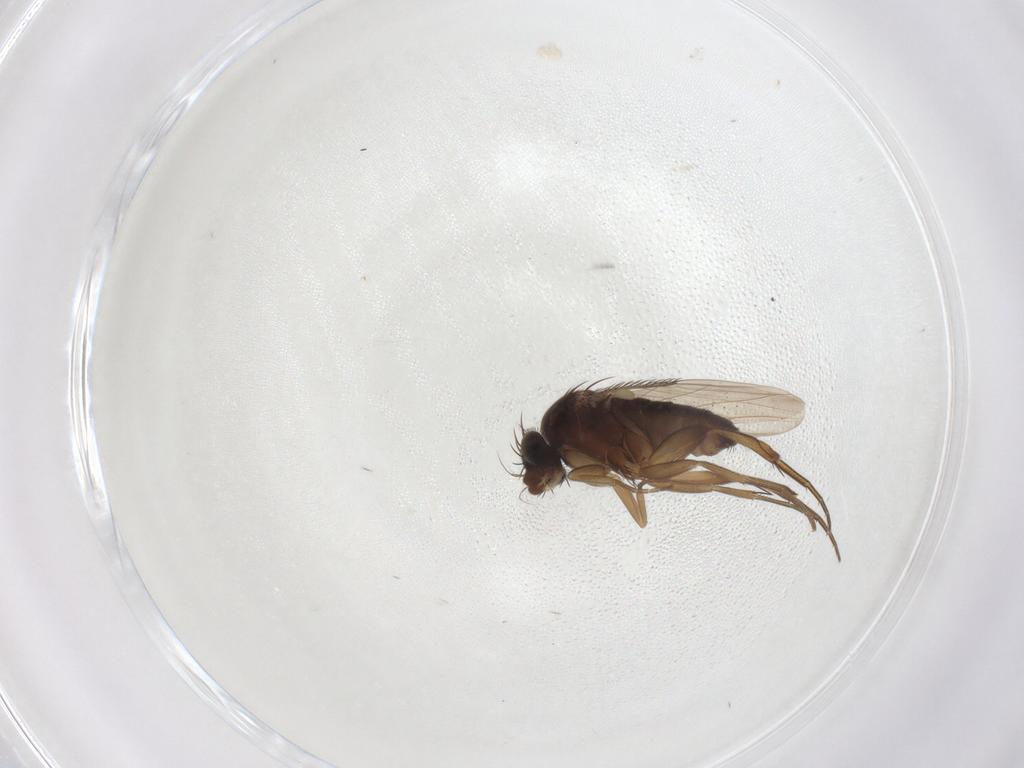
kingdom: Animalia
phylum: Arthropoda
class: Insecta
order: Diptera
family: Phoridae
